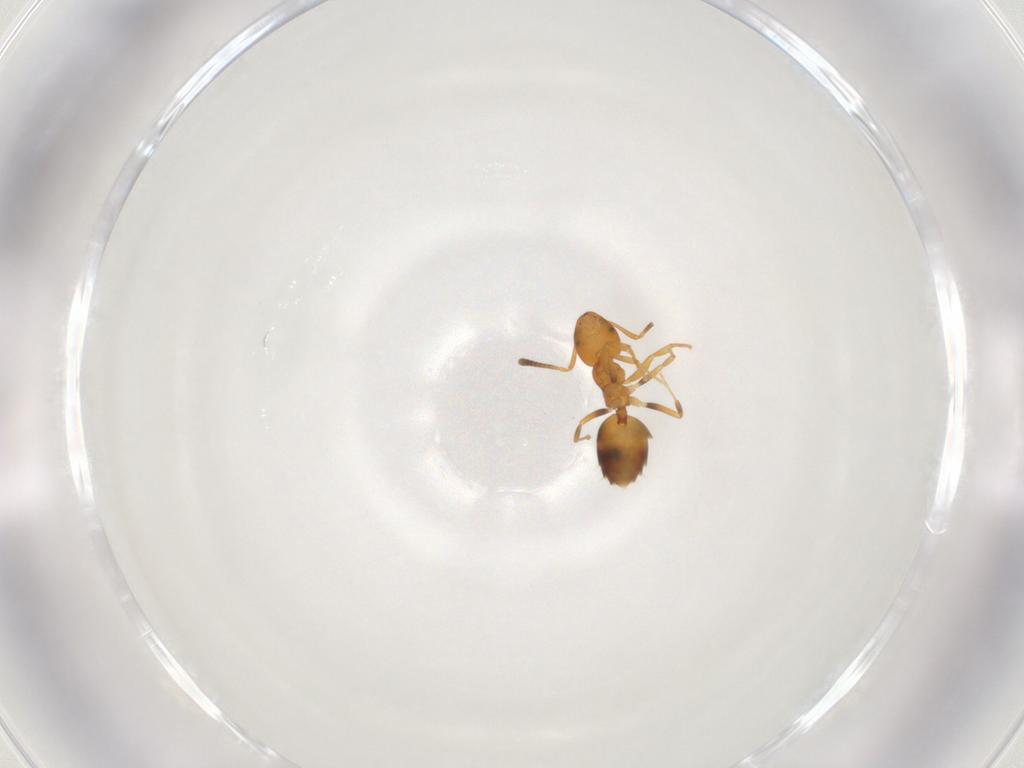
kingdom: Animalia
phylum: Arthropoda
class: Insecta
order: Hymenoptera
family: Formicidae
